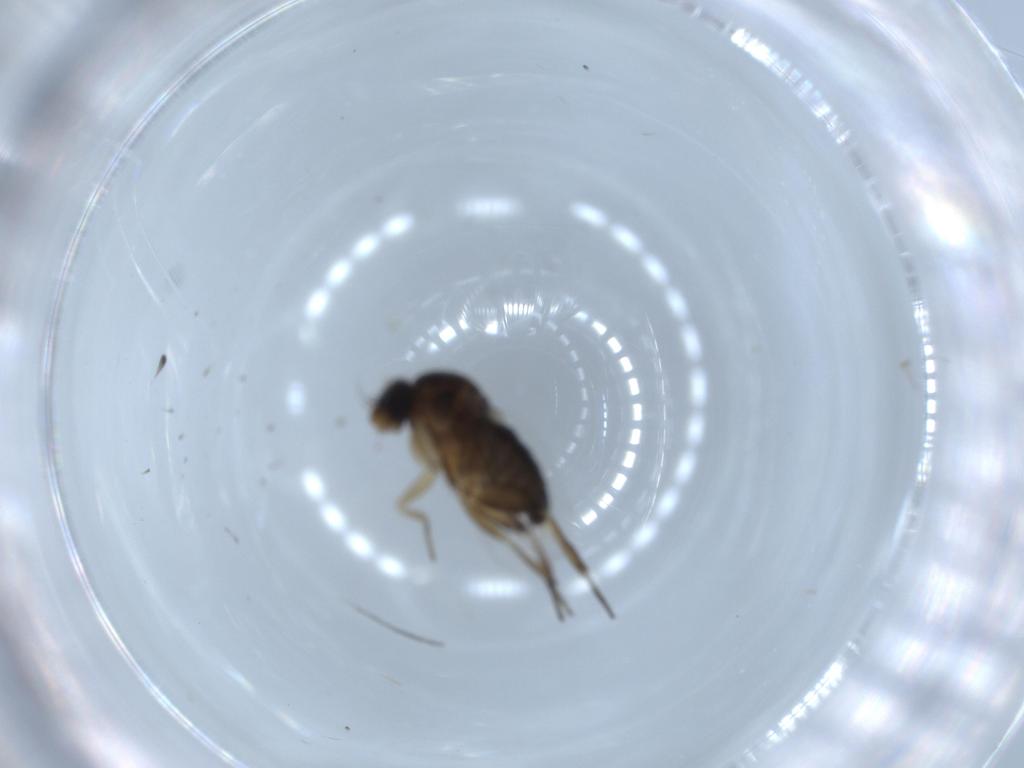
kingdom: Animalia
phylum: Arthropoda
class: Insecta
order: Diptera
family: Phoridae
